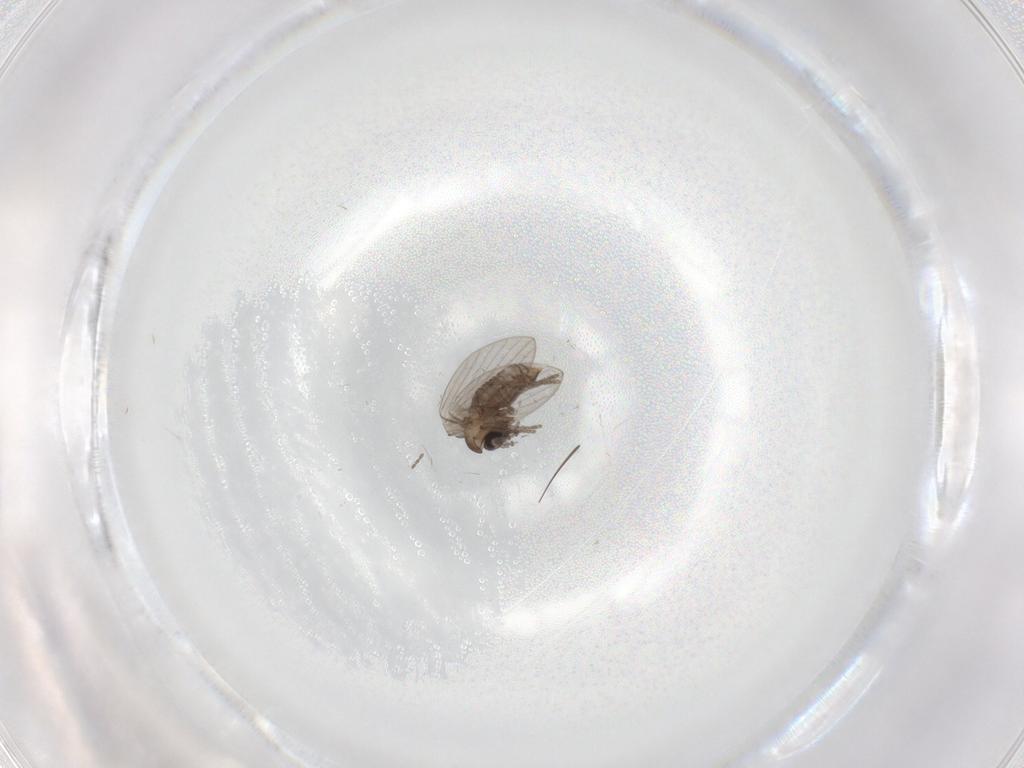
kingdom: Animalia
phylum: Arthropoda
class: Insecta
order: Diptera
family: Psychodidae
